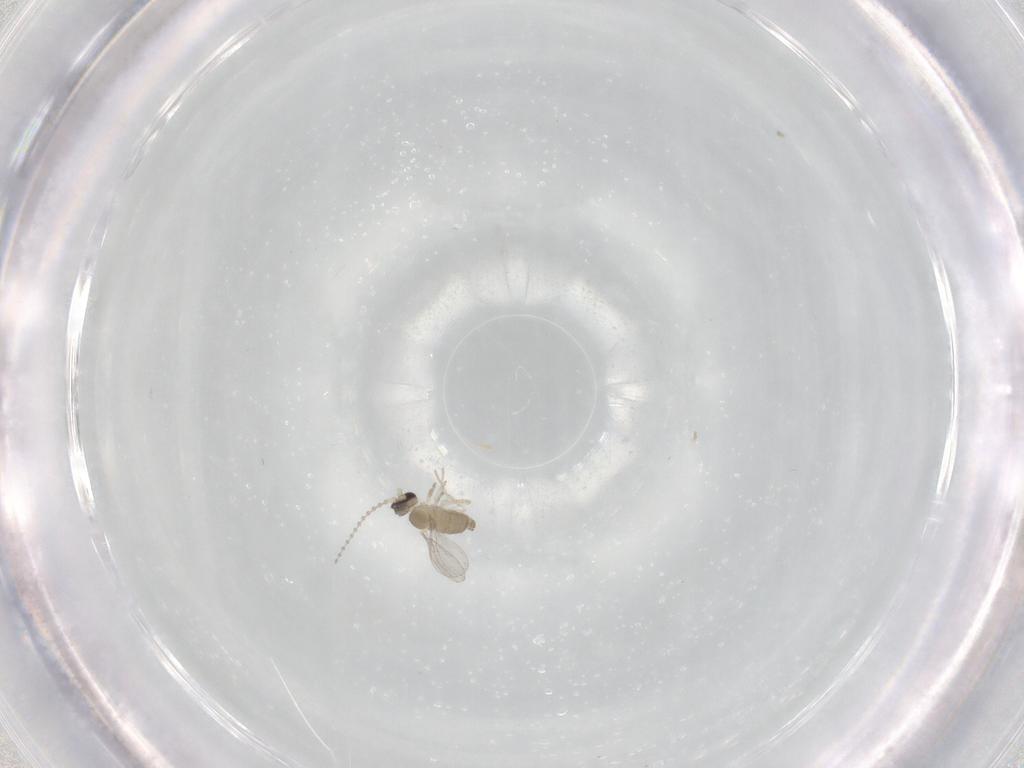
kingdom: Animalia
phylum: Arthropoda
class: Insecta
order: Diptera
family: Cecidomyiidae
